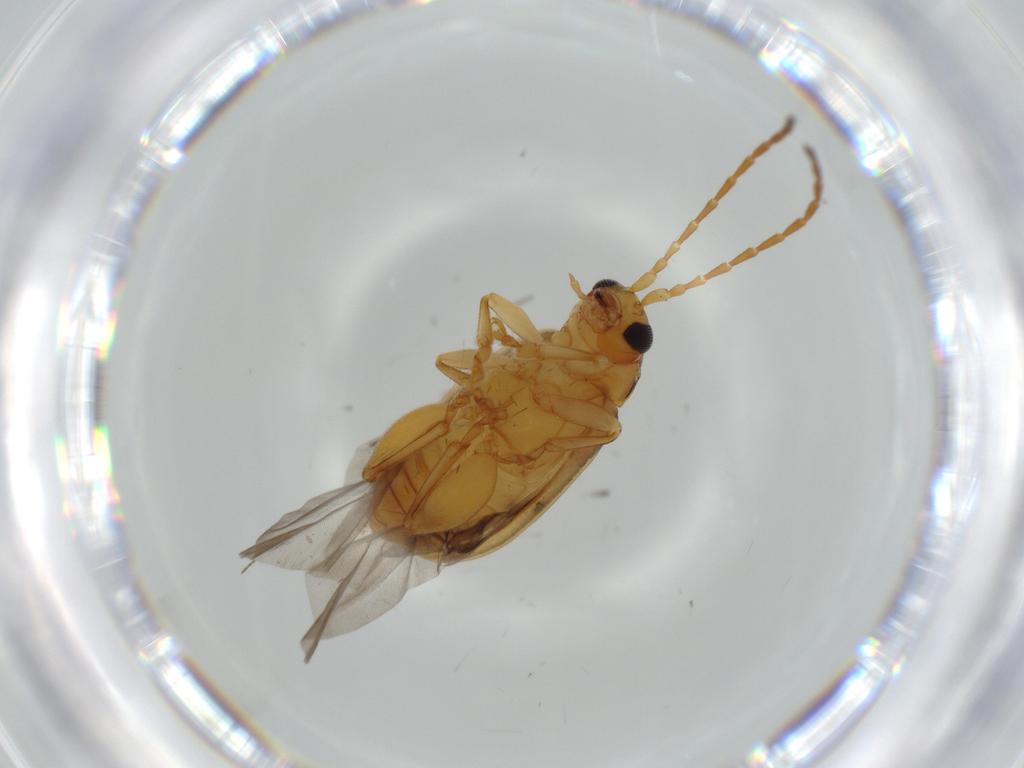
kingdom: Animalia
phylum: Arthropoda
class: Insecta
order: Coleoptera
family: Chrysomelidae
